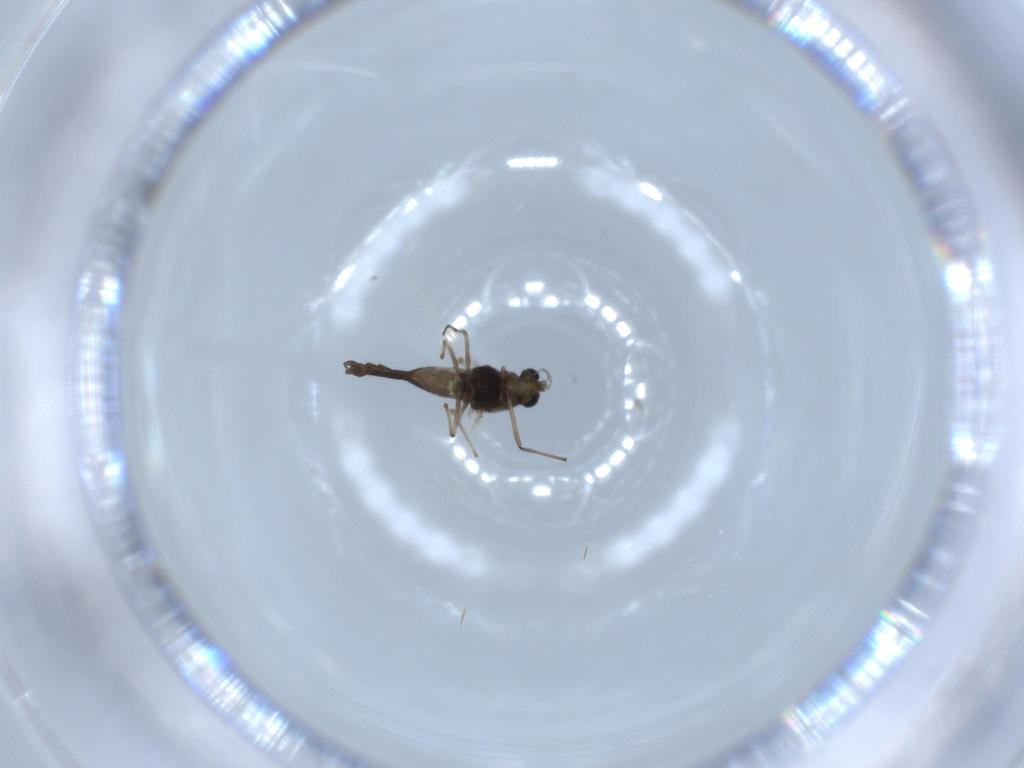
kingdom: Animalia
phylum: Arthropoda
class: Insecta
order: Diptera
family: Chironomidae
